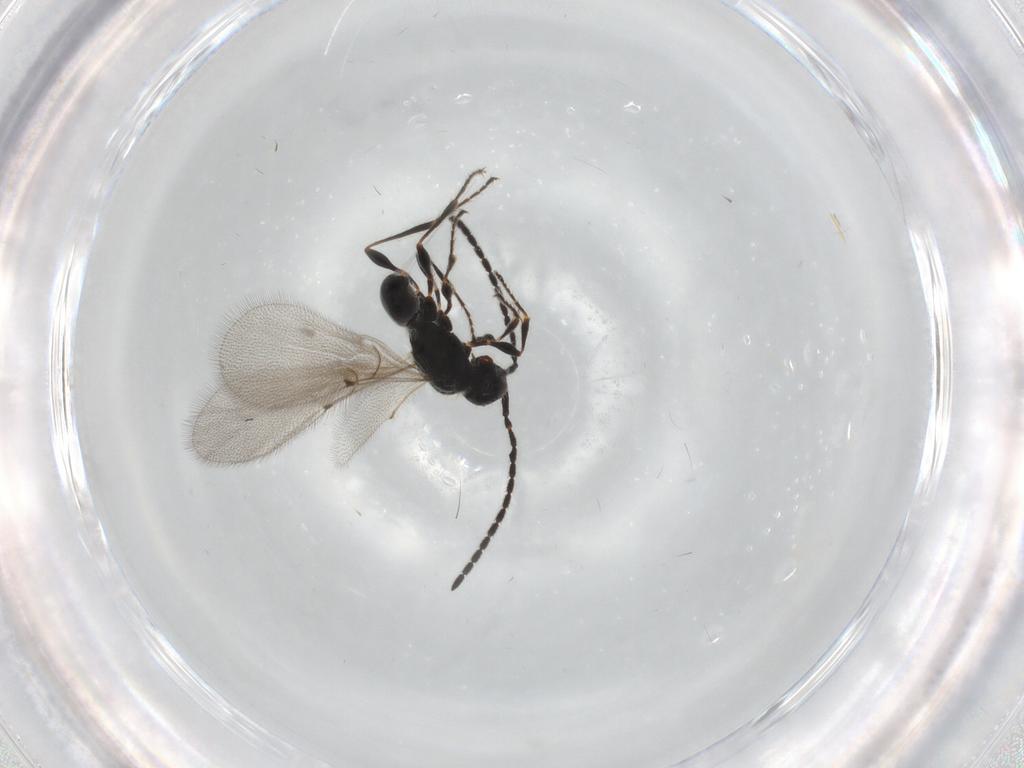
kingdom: Animalia
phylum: Arthropoda
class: Insecta
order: Hymenoptera
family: Diapriidae
